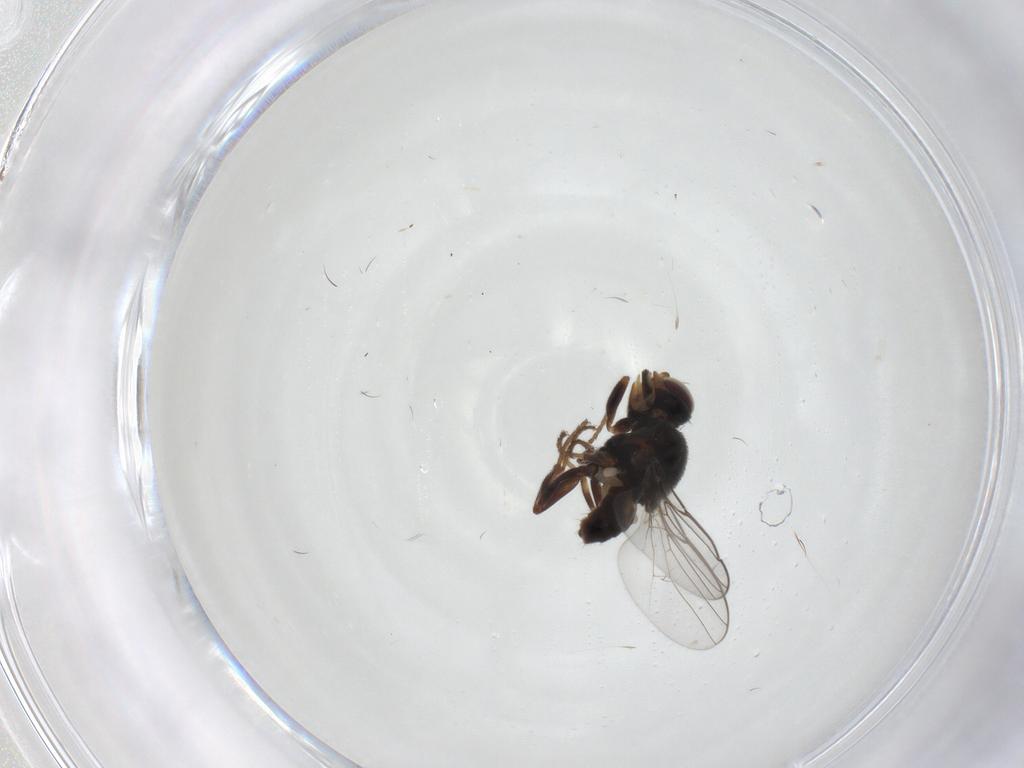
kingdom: Animalia
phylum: Arthropoda
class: Insecta
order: Diptera
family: Chloropidae
